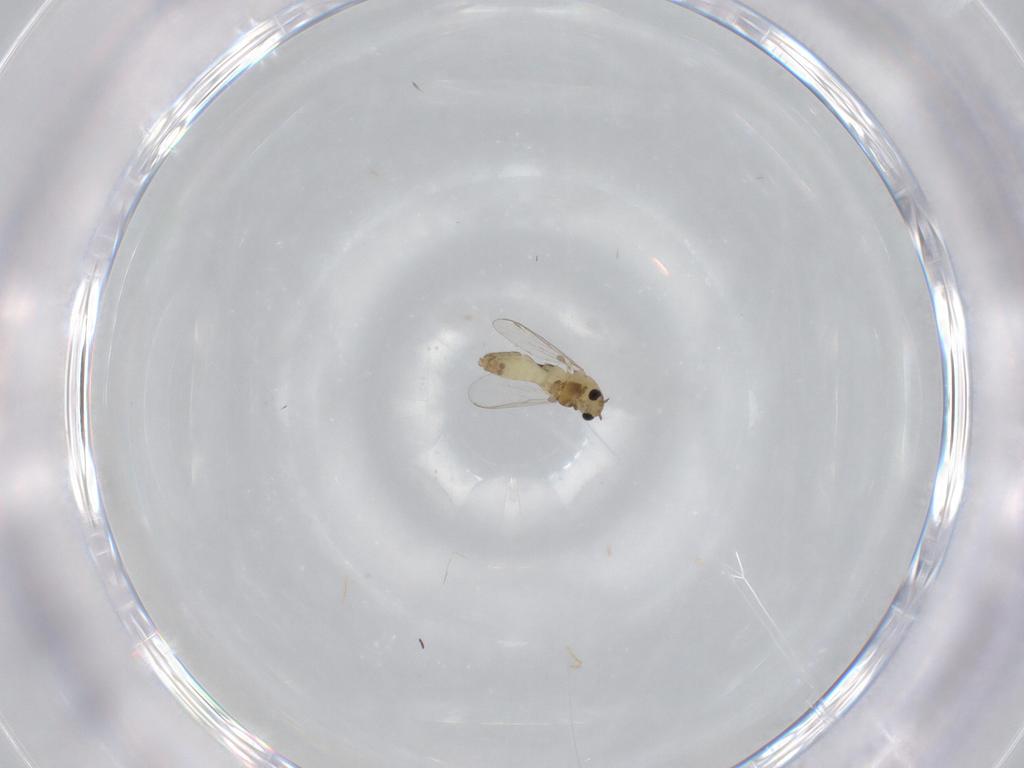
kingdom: Animalia
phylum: Arthropoda
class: Insecta
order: Diptera
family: Chironomidae
